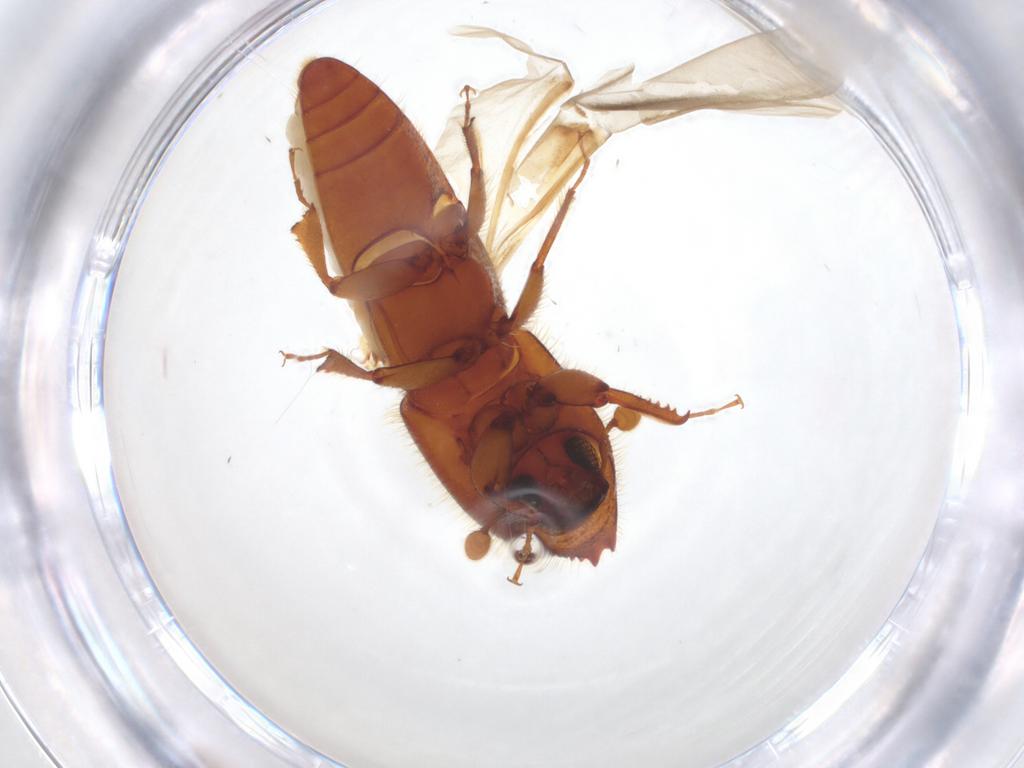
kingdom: Animalia
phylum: Arthropoda
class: Insecta
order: Coleoptera
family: Curculionidae
